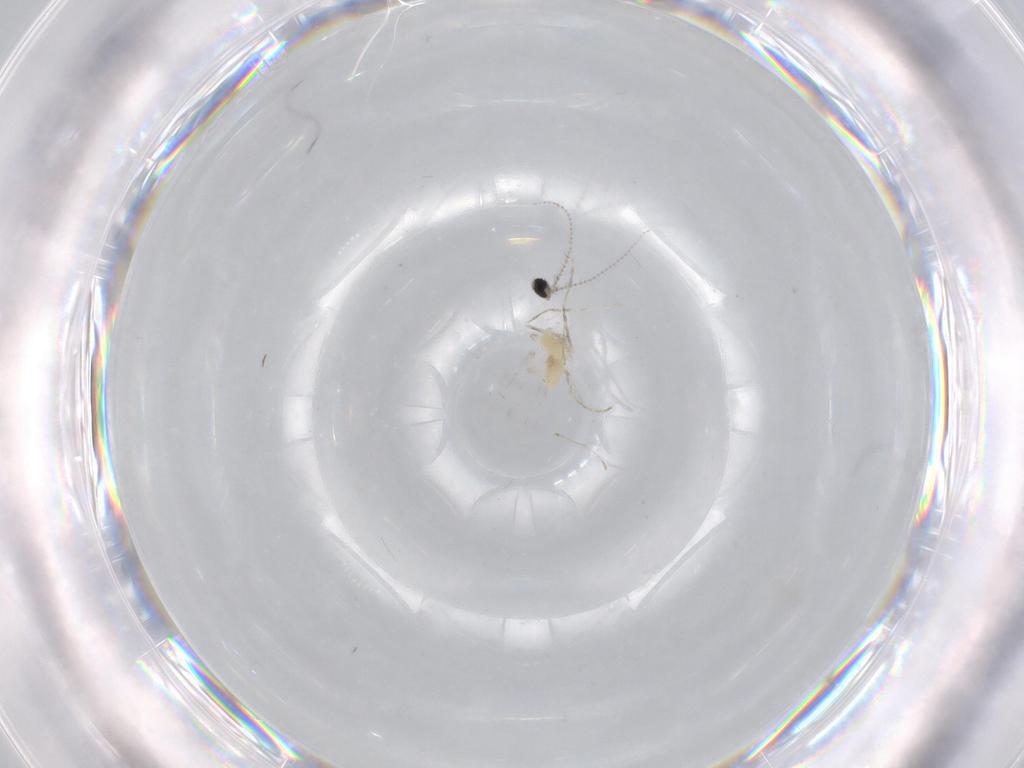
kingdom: Animalia
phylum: Arthropoda
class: Insecta
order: Diptera
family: Cecidomyiidae
